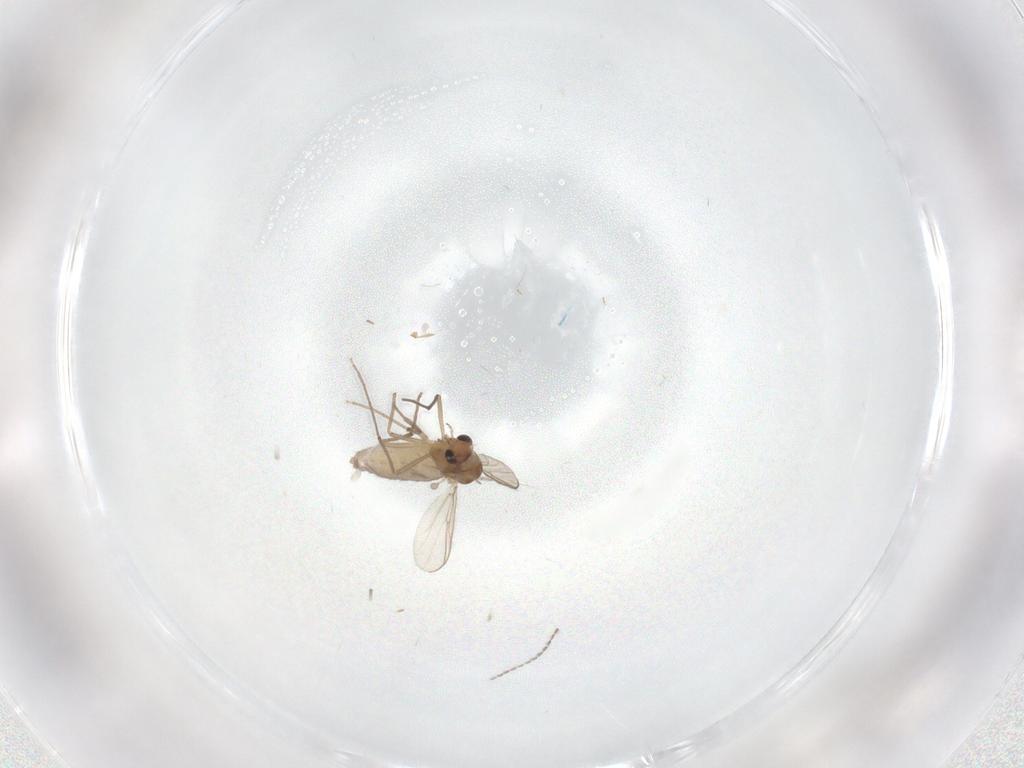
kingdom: Animalia
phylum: Arthropoda
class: Insecta
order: Diptera
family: Chironomidae
